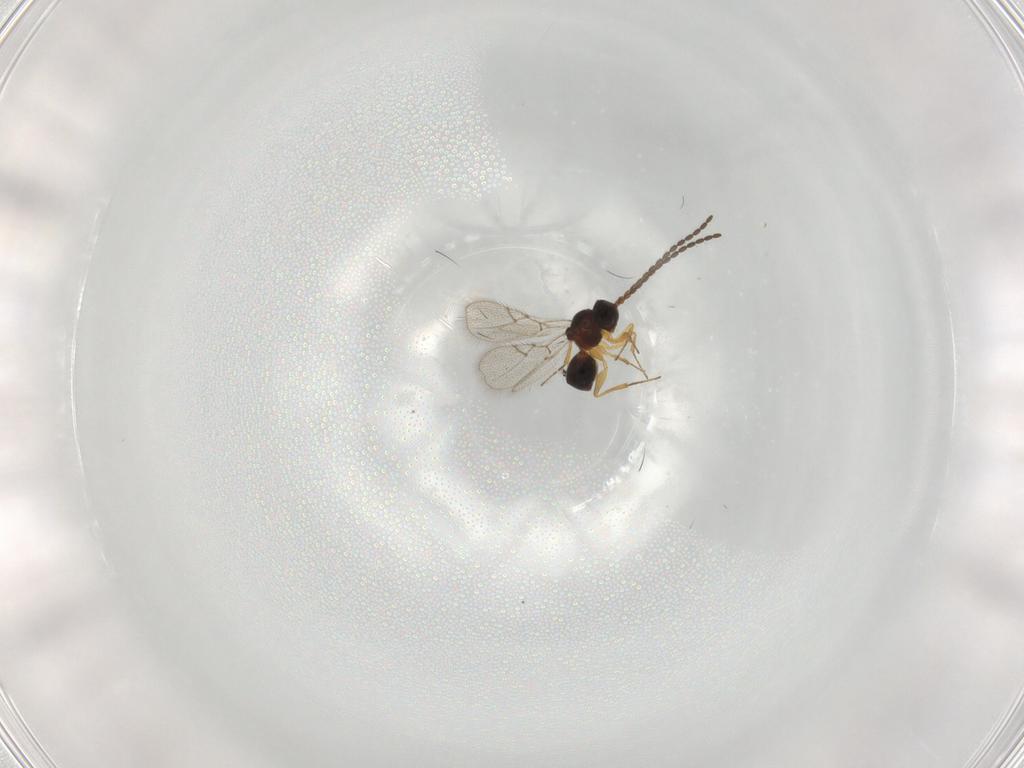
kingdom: Animalia
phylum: Arthropoda
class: Insecta
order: Hymenoptera
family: Figitidae
